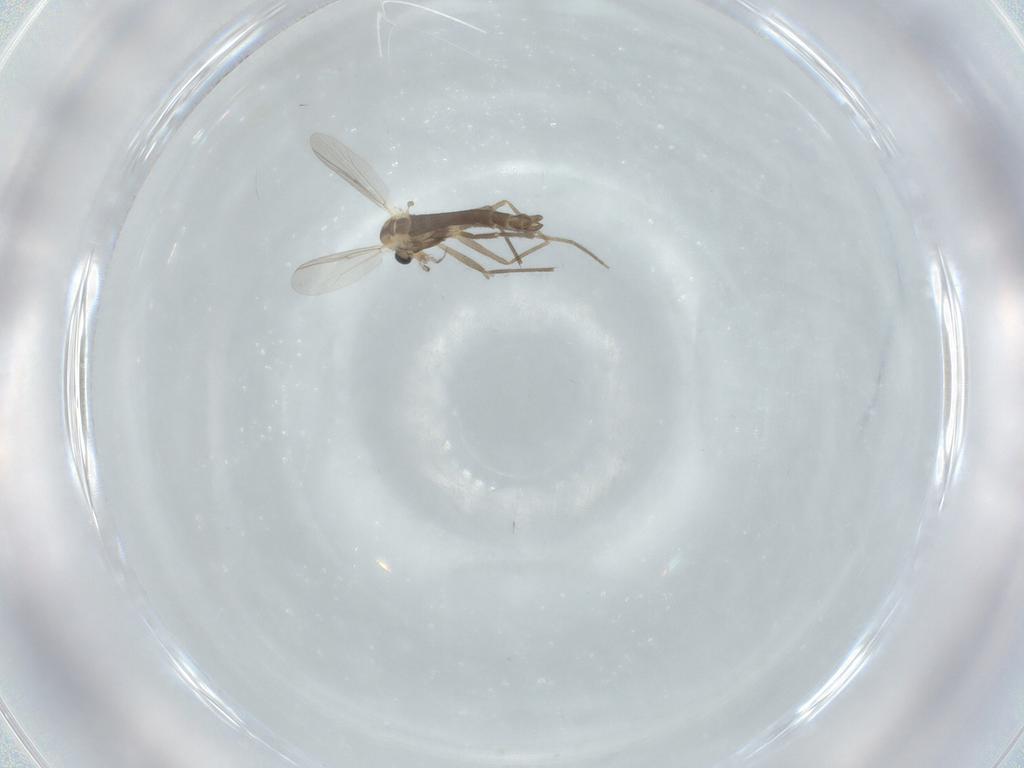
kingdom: Animalia
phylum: Arthropoda
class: Insecta
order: Diptera
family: Chironomidae
